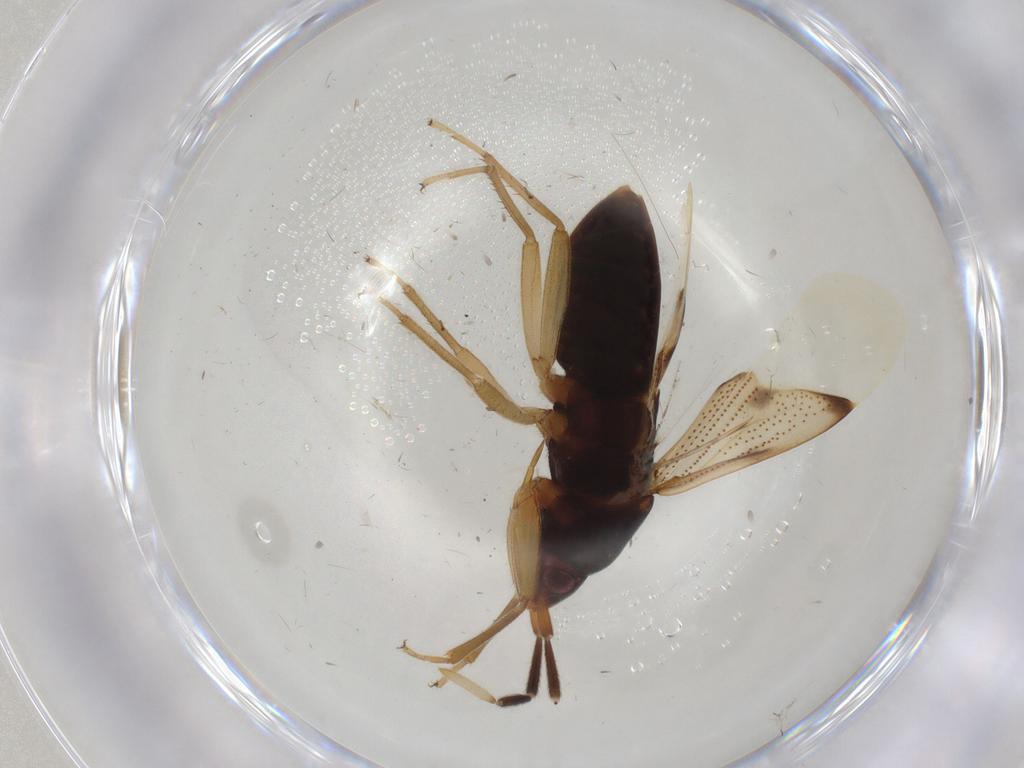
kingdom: Animalia
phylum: Arthropoda
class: Insecta
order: Hemiptera
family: Rhyparochromidae
